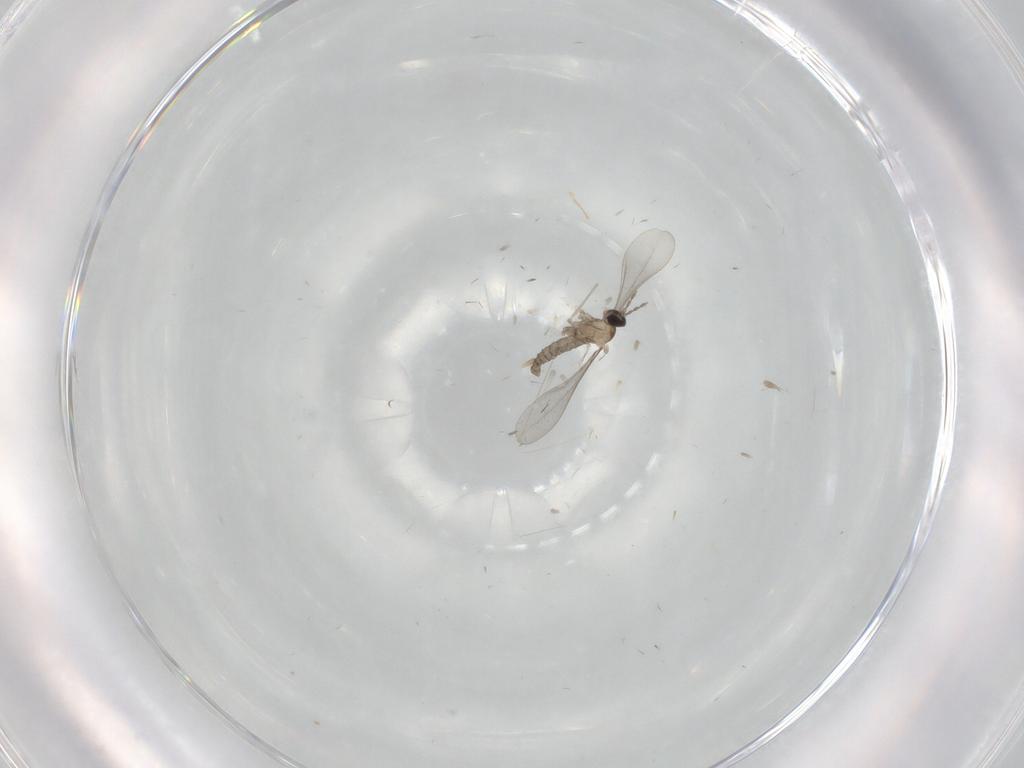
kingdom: Animalia
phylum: Arthropoda
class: Insecta
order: Diptera
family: Cecidomyiidae
